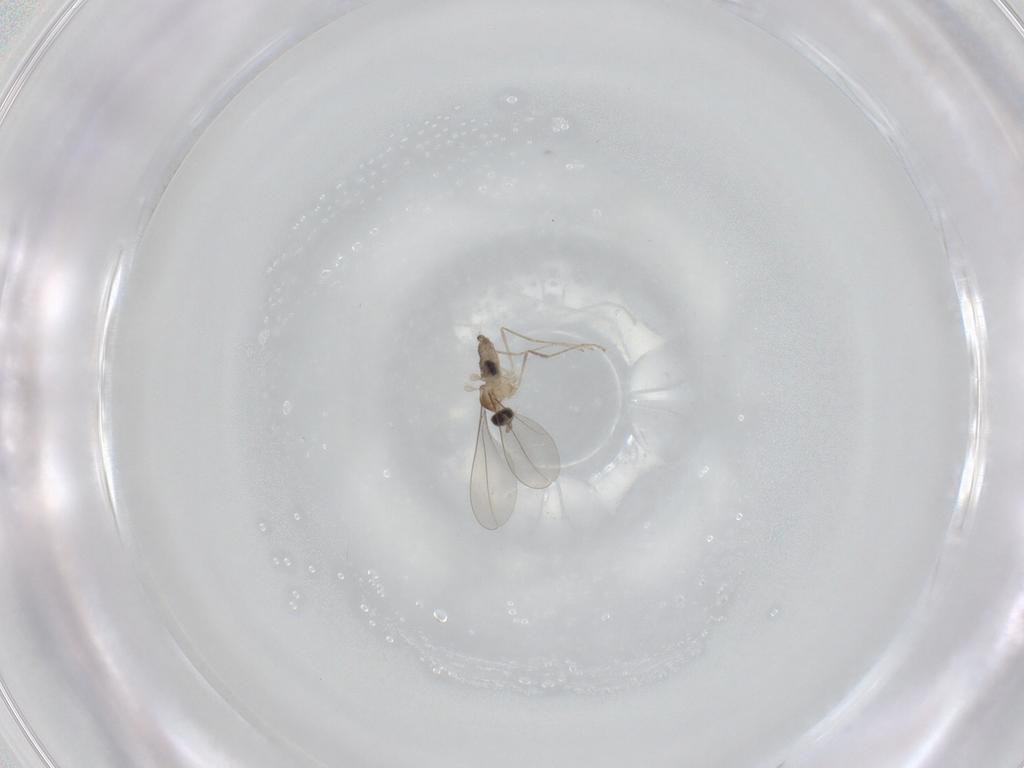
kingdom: Animalia
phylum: Arthropoda
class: Insecta
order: Diptera
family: Cecidomyiidae
